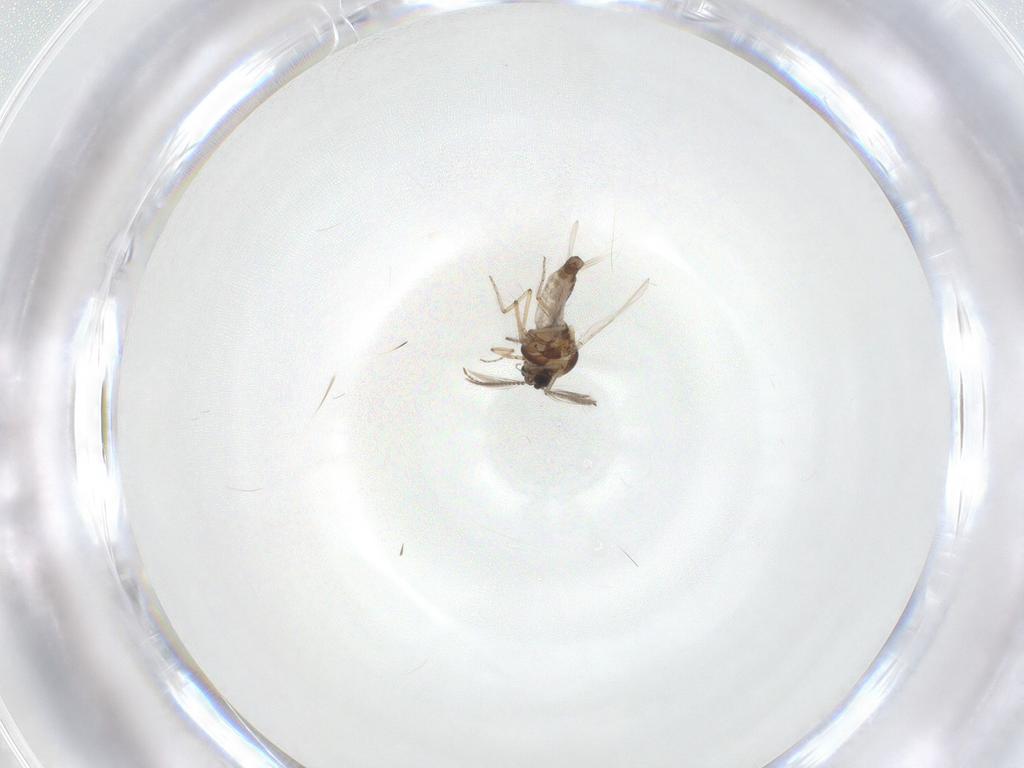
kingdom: Animalia
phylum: Arthropoda
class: Insecta
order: Diptera
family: Ceratopogonidae
